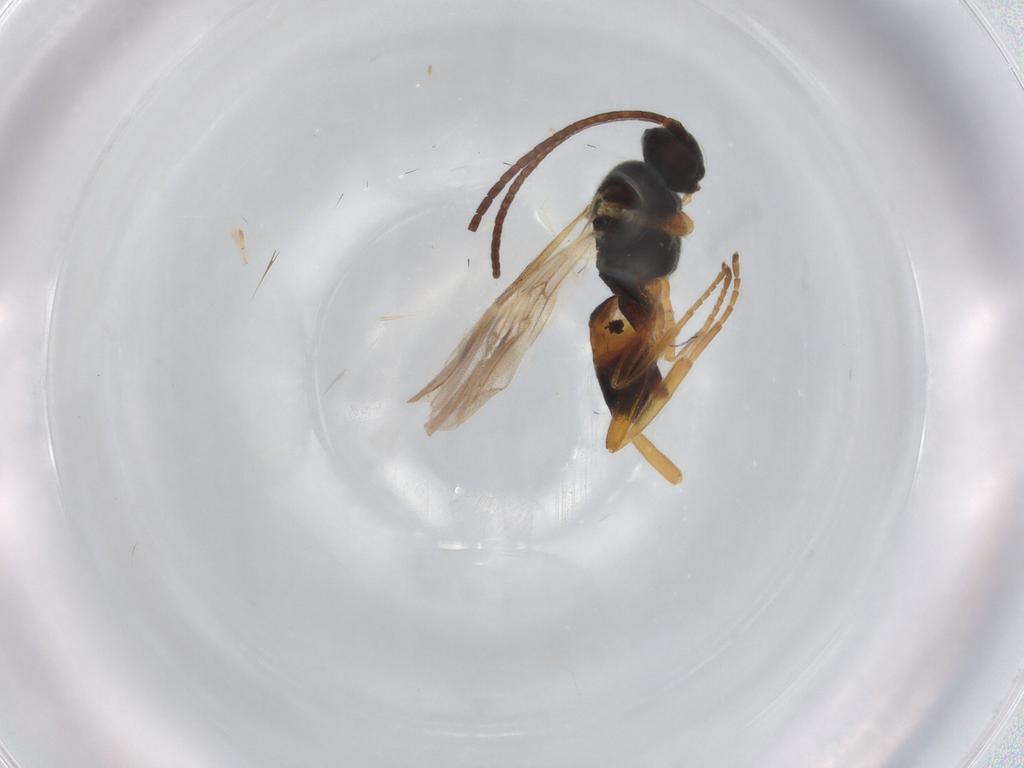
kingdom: Animalia
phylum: Arthropoda
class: Insecta
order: Hymenoptera
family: Braconidae
